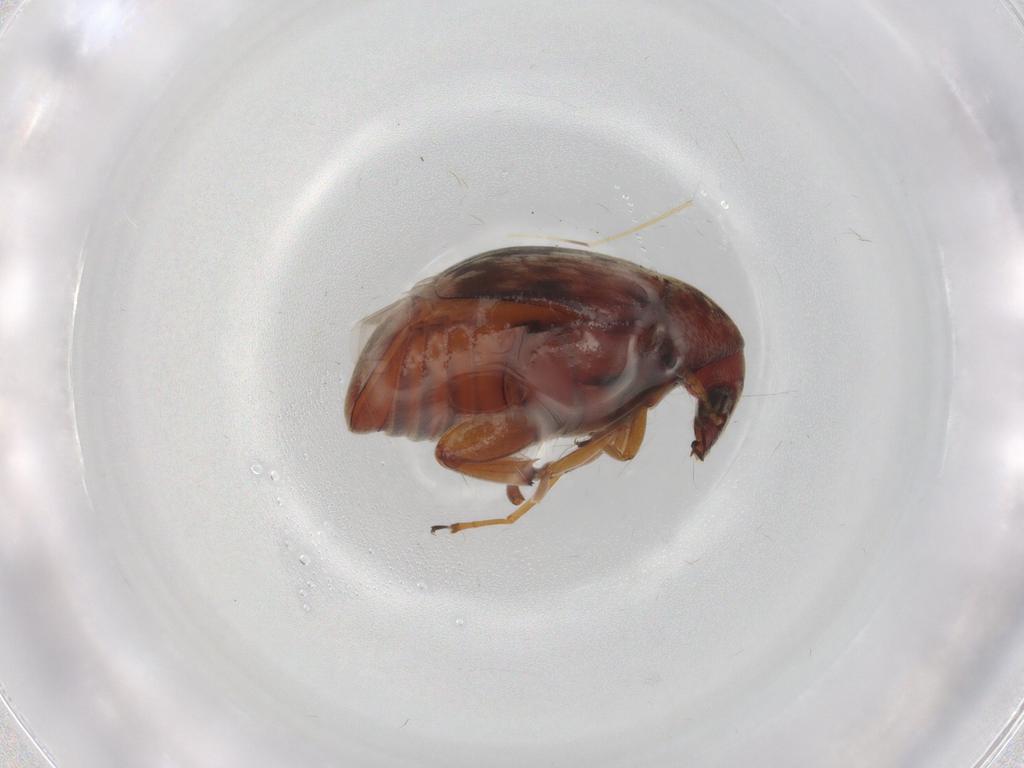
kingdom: Animalia
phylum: Arthropoda
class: Insecta
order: Coleoptera
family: Chrysomelidae
